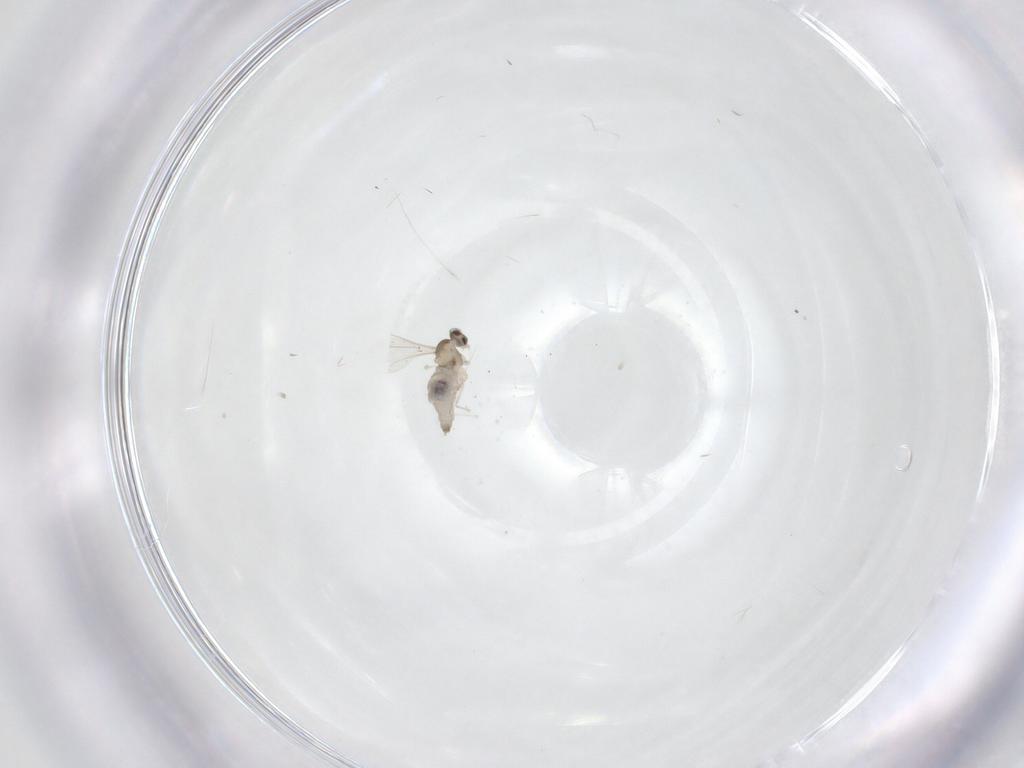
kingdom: Animalia
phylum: Arthropoda
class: Insecta
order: Diptera
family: Cecidomyiidae
